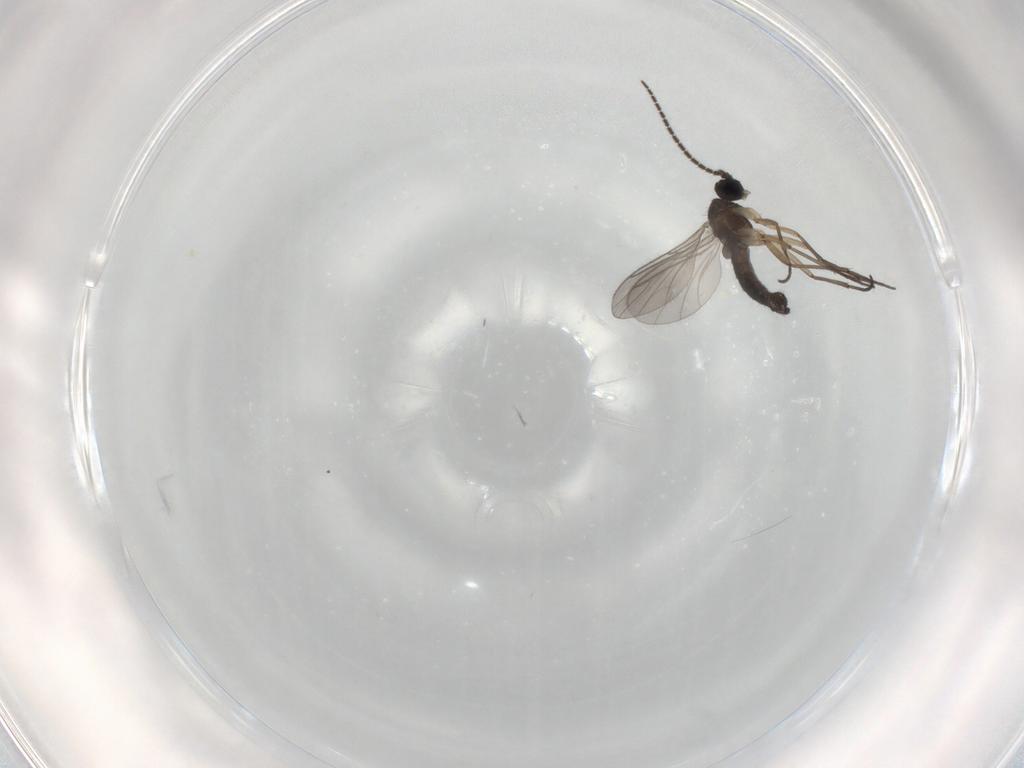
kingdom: Animalia
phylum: Arthropoda
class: Insecta
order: Diptera
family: Sciaridae
